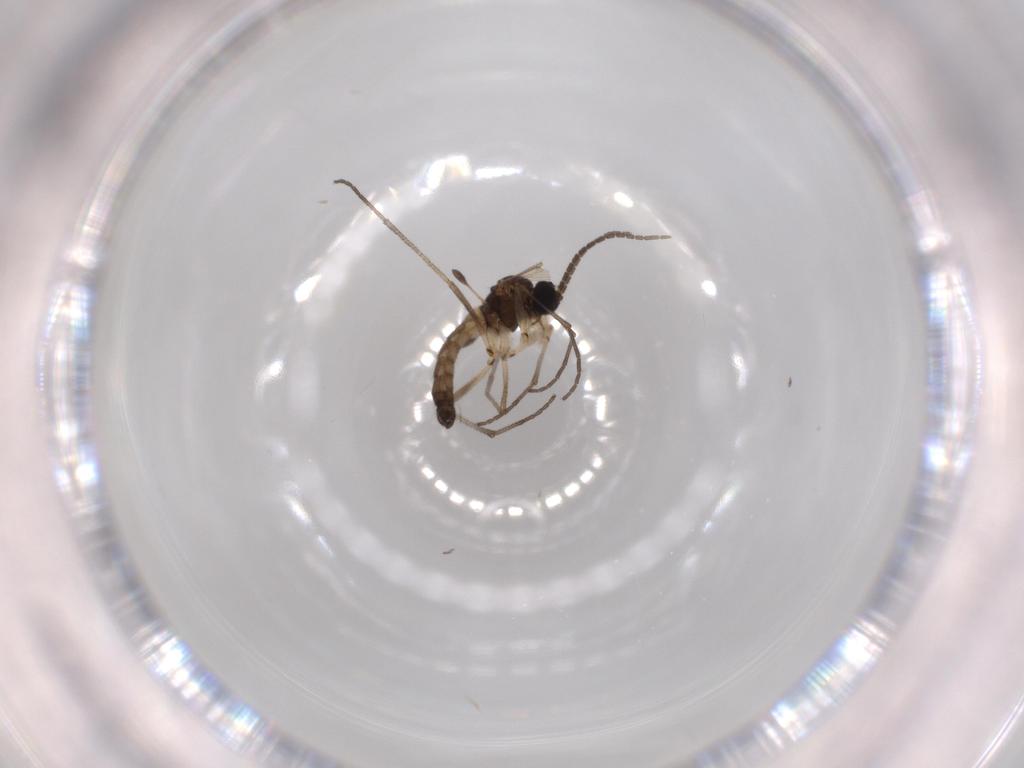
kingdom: Animalia
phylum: Arthropoda
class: Insecta
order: Diptera
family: Sciaridae
